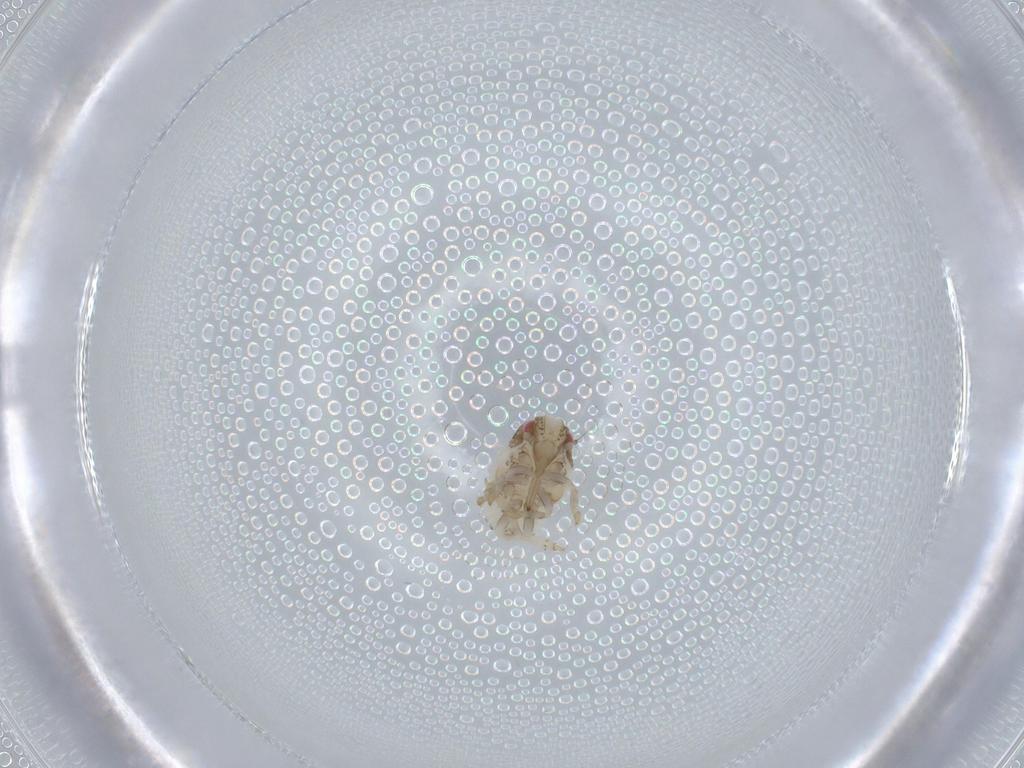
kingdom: Animalia
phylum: Arthropoda
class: Insecta
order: Hemiptera
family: Acanaloniidae
